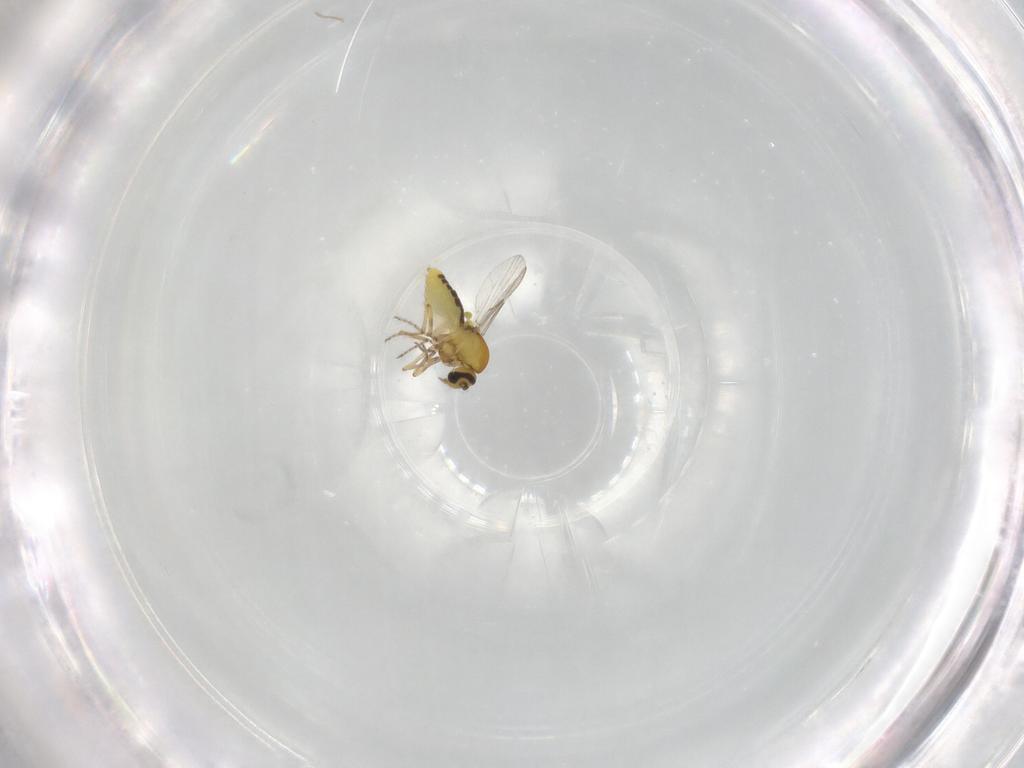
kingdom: Animalia
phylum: Arthropoda
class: Insecta
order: Diptera
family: Ceratopogonidae
